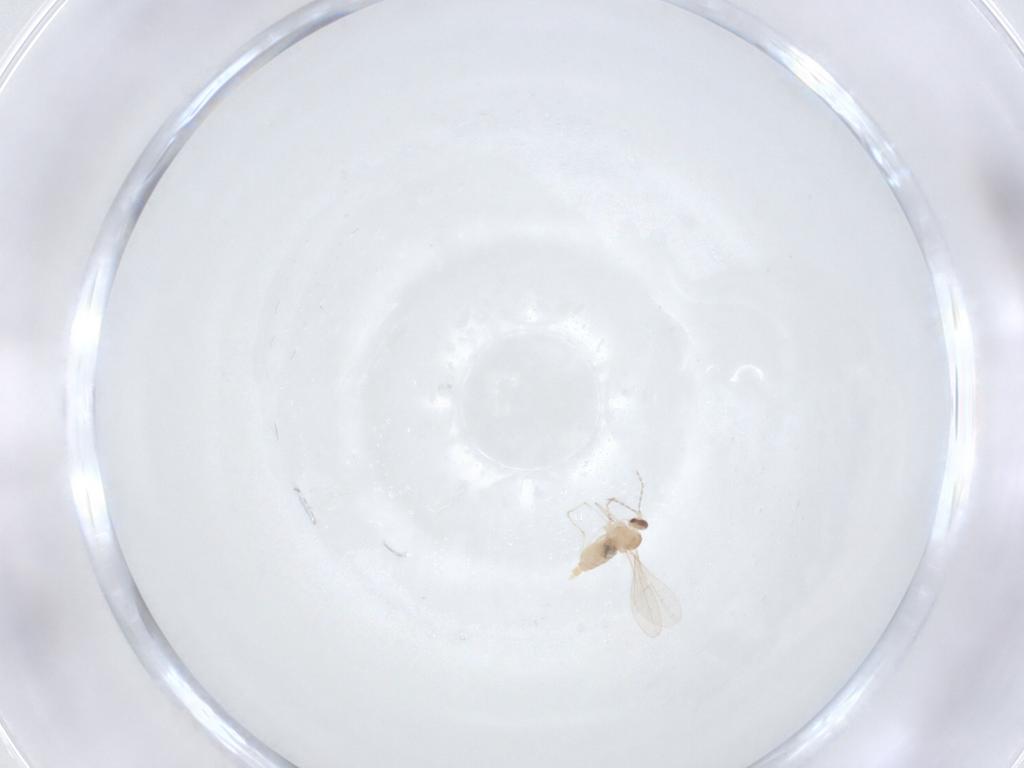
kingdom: Animalia
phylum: Arthropoda
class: Insecta
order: Diptera
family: Cecidomyiidae
